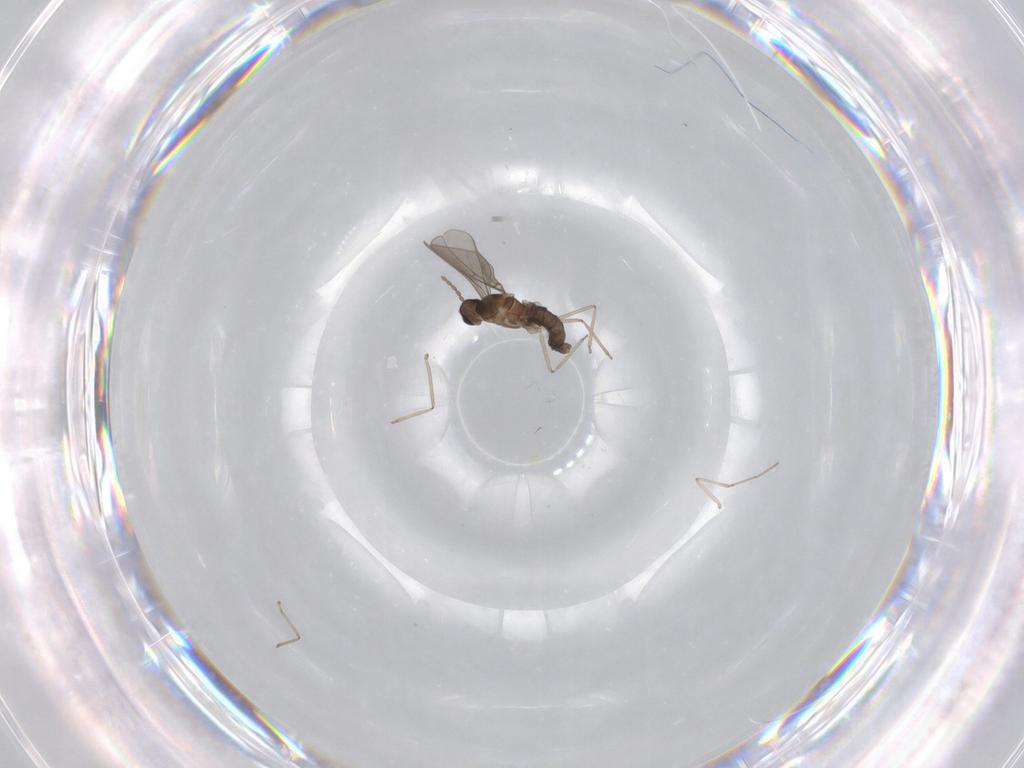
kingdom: Animalia
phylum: Arthropoda
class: Insecta
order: Diptera
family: Cecidomyiidae
